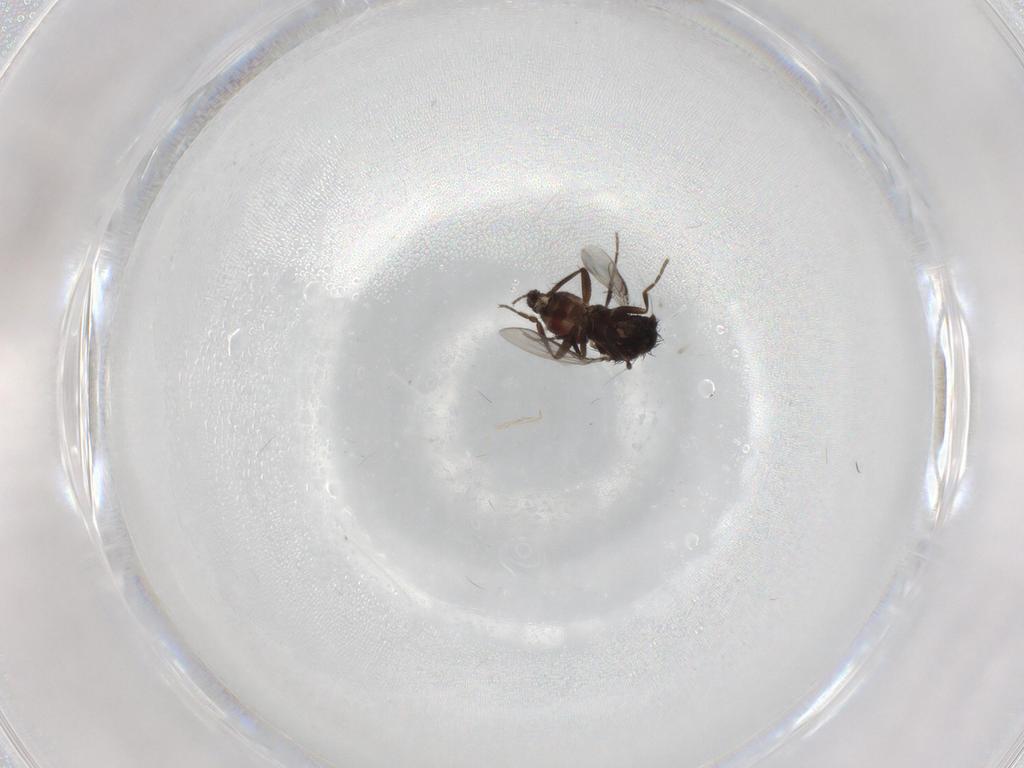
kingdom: Animalia
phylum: Arthropoda
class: Insecta
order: Diptera
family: Sphaeroceridae
